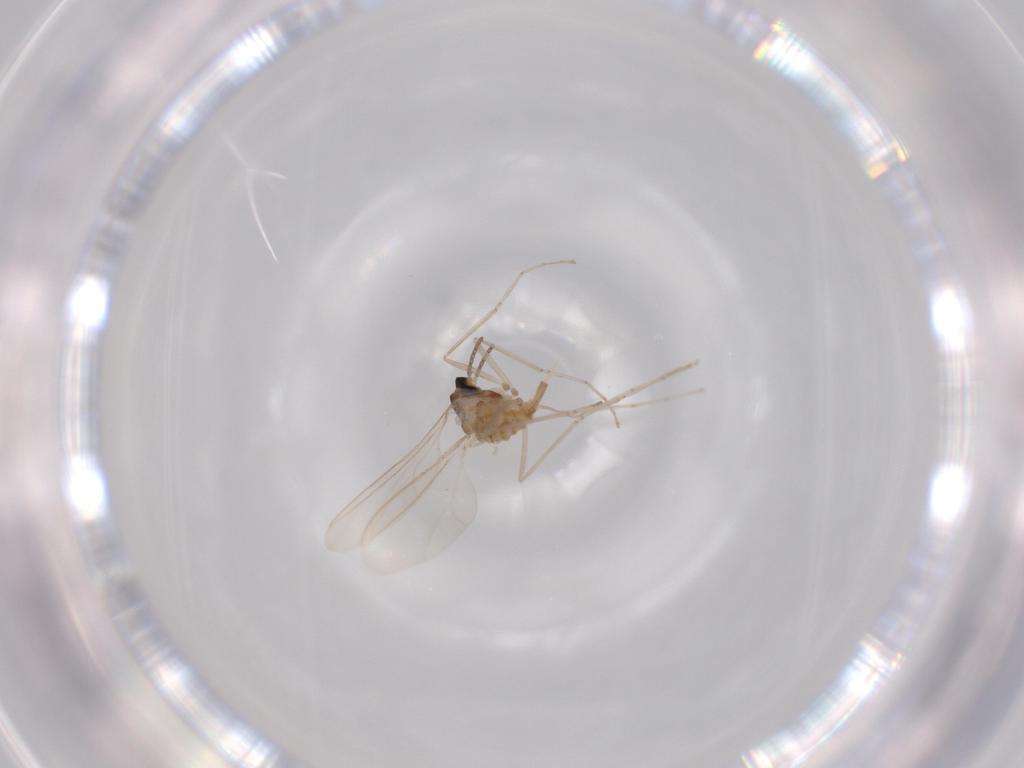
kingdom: Animalia
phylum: Arthropoda
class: Insecta
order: Diptera
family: Cecidomyiidae
